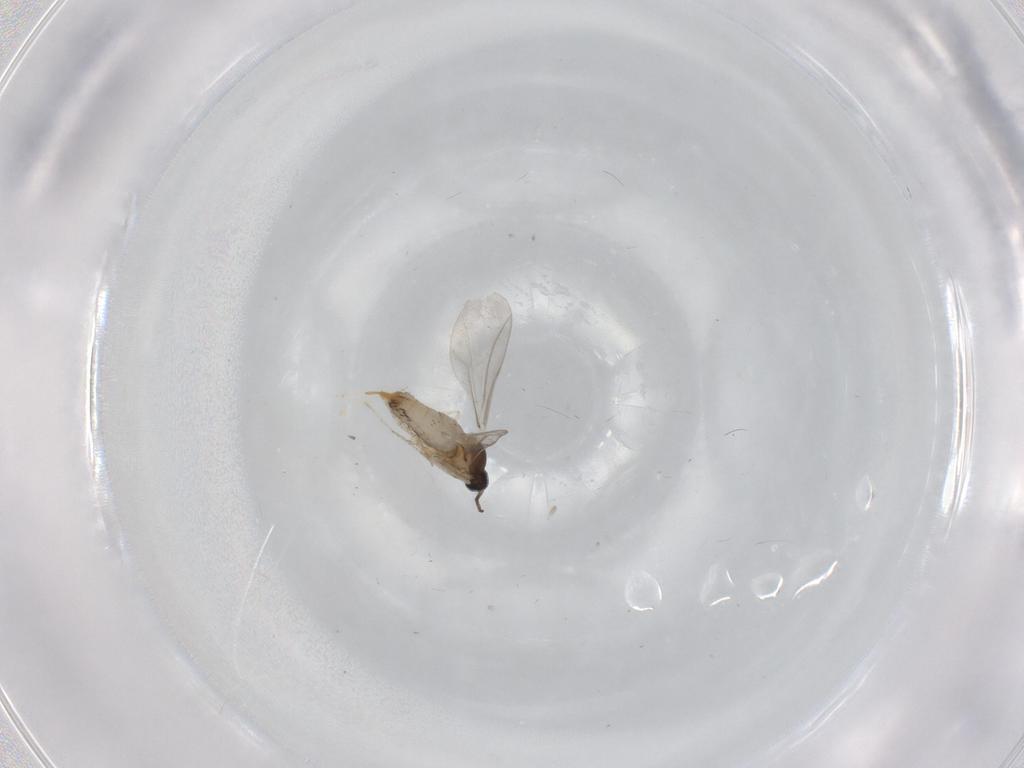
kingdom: Animalia
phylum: Arthropoda
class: Insecta
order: Diptera
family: Cecidomyiidae
